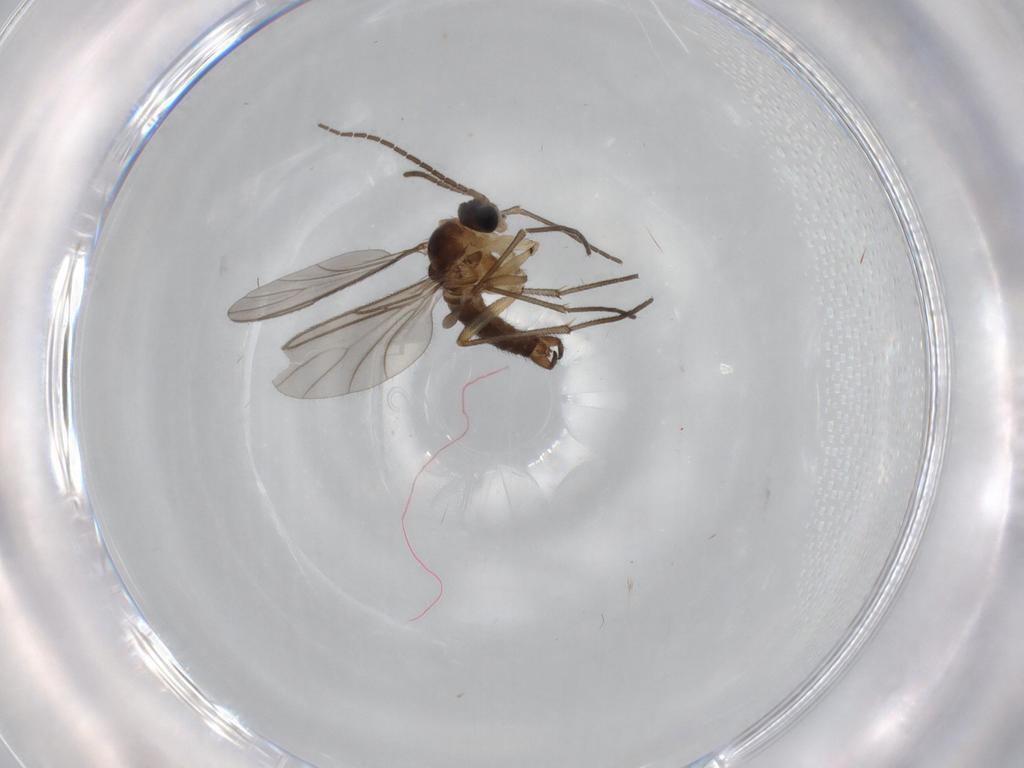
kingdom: Animalia
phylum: Arthropoda
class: Insecta
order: Diptera
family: Sciaridae
